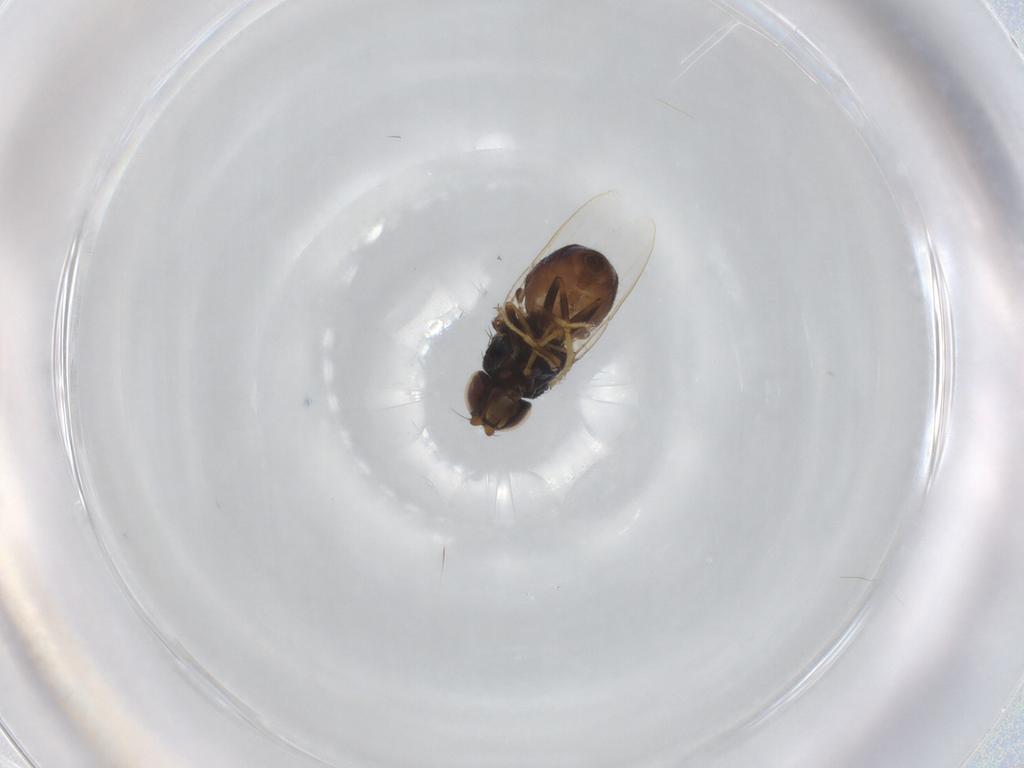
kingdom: Animalia
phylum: Arthropoda
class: Insecta
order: Diptera
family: Chloropidae
